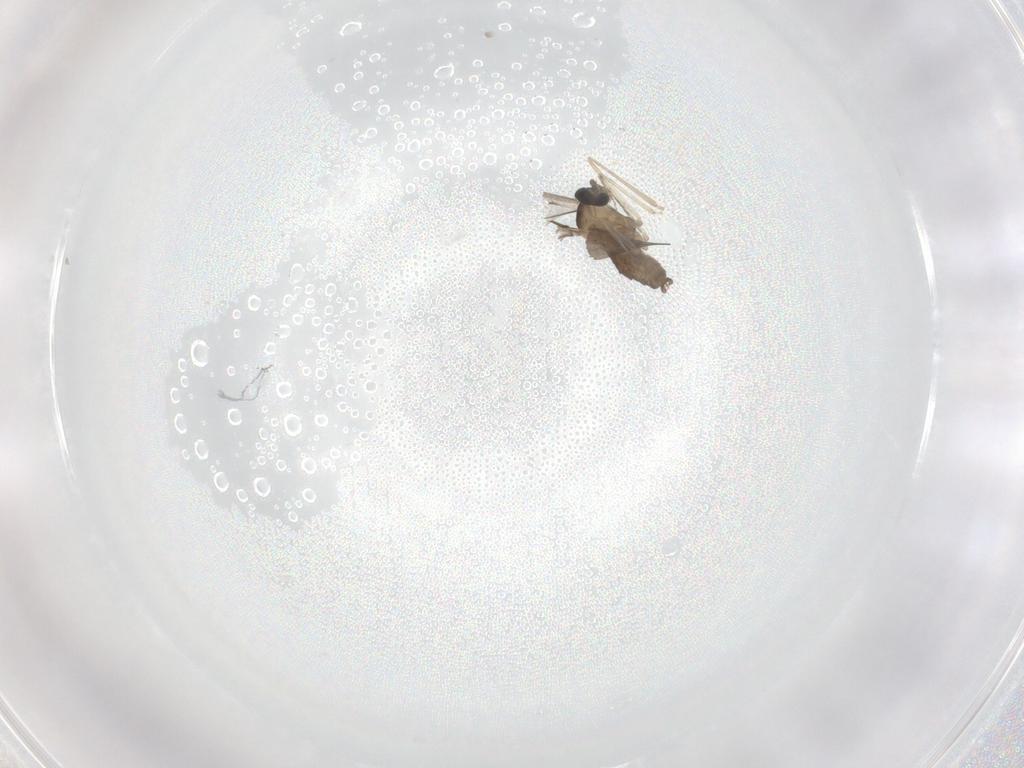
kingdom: Animalia
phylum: Arthropoda
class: Insecta
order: Diptera
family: Cecidomyiidae
